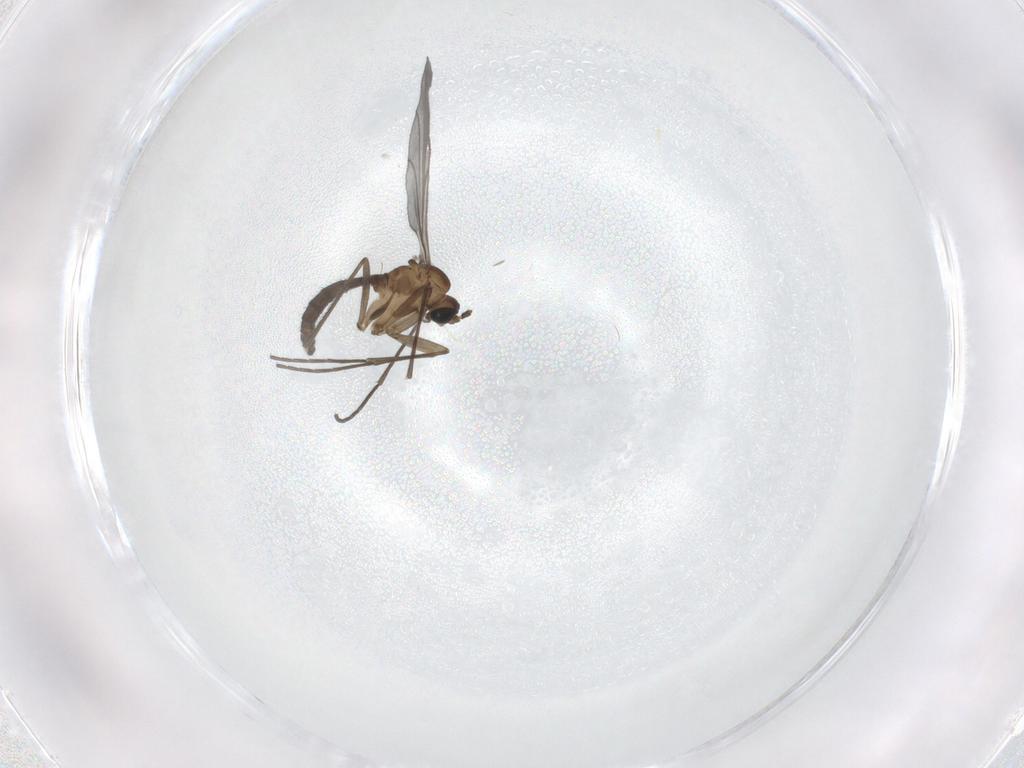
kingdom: Animalia
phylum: Arthropoda
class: Insecta
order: Diptera
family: Sciaridae
